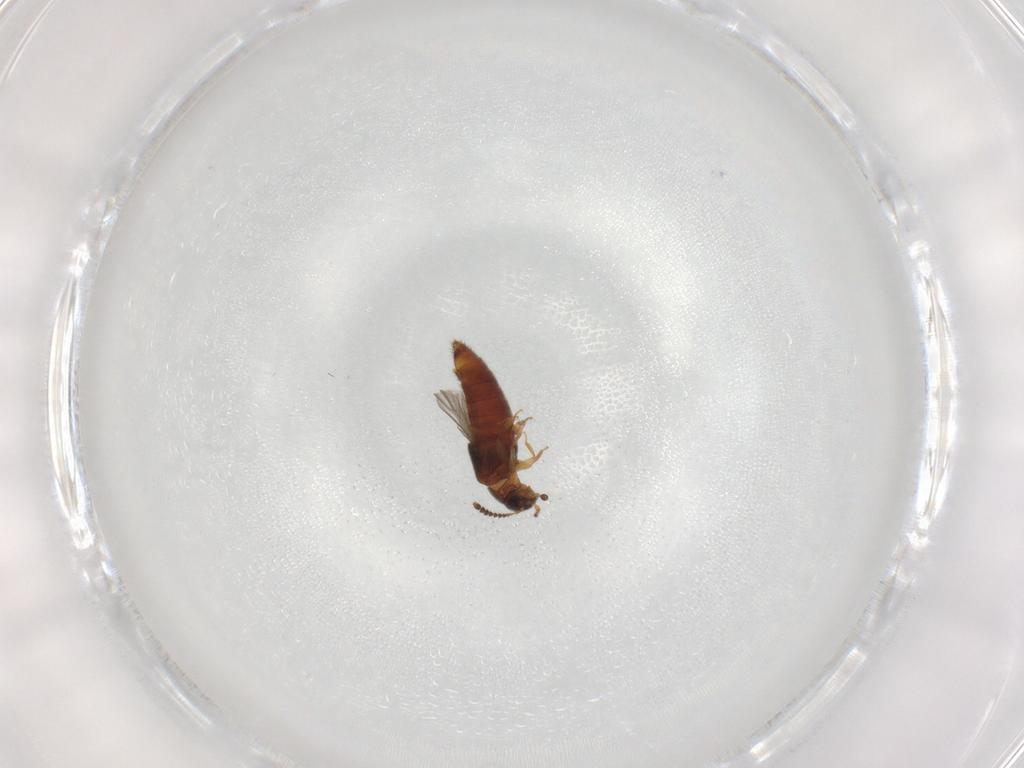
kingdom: Animalia
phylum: Arthropoda
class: Insecta
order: Coleoptera
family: Staphylinidae
